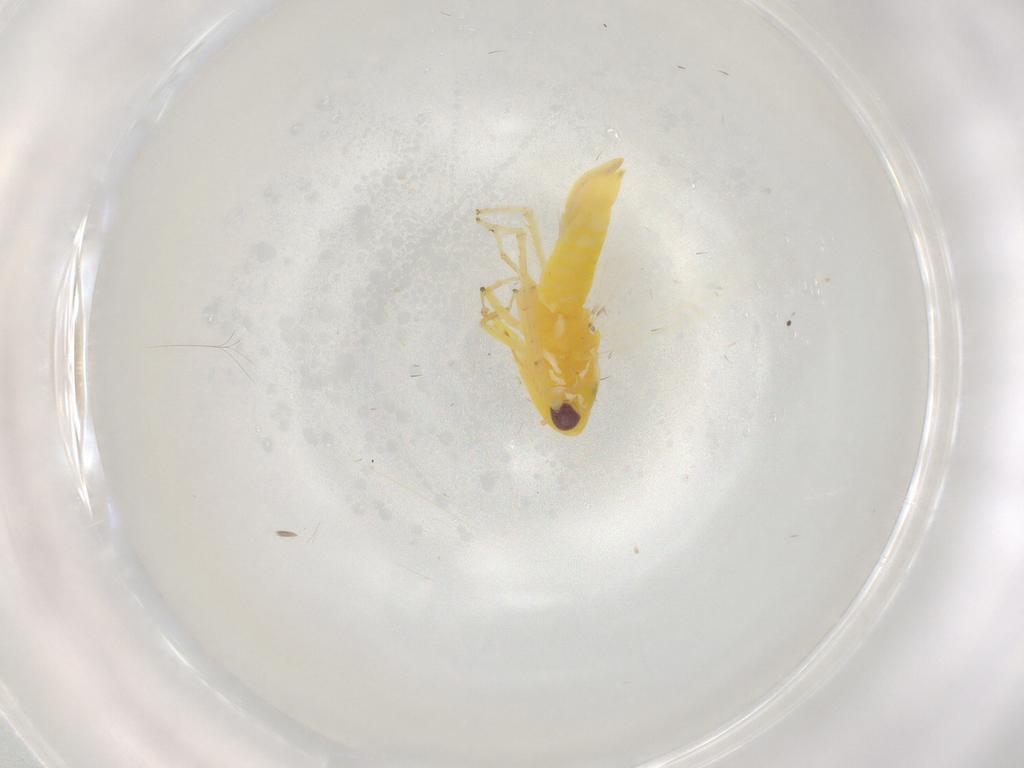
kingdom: Animalia
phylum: Arthropoda
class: Insecta
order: Hemiptera
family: Cicadellidae
